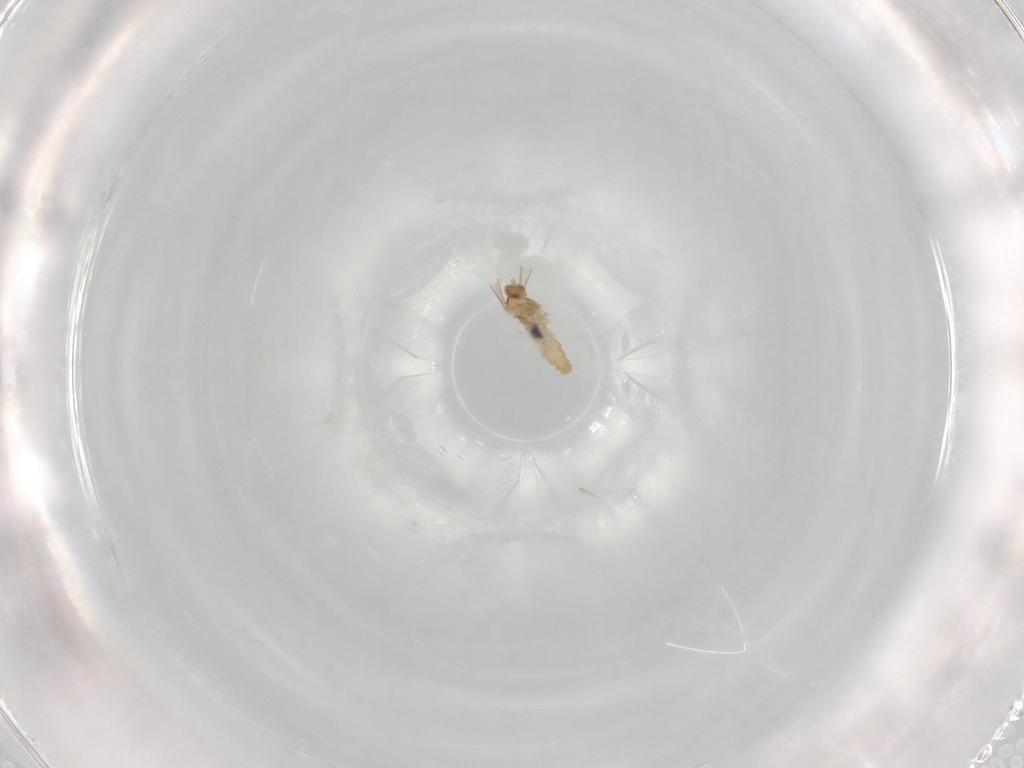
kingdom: Animalia
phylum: Arthropoda
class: Insecta
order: Diptera
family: Cecidomyiidae
